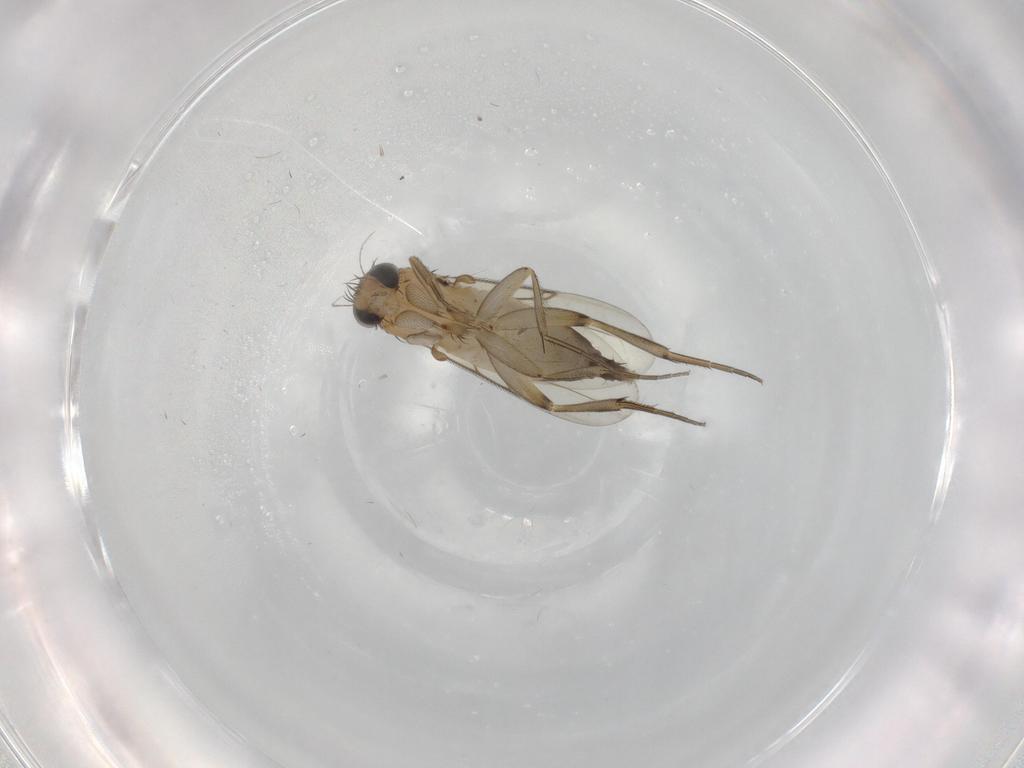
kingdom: Animalia
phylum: Arthropoda
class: Insecta
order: Diptera
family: Phoridae
